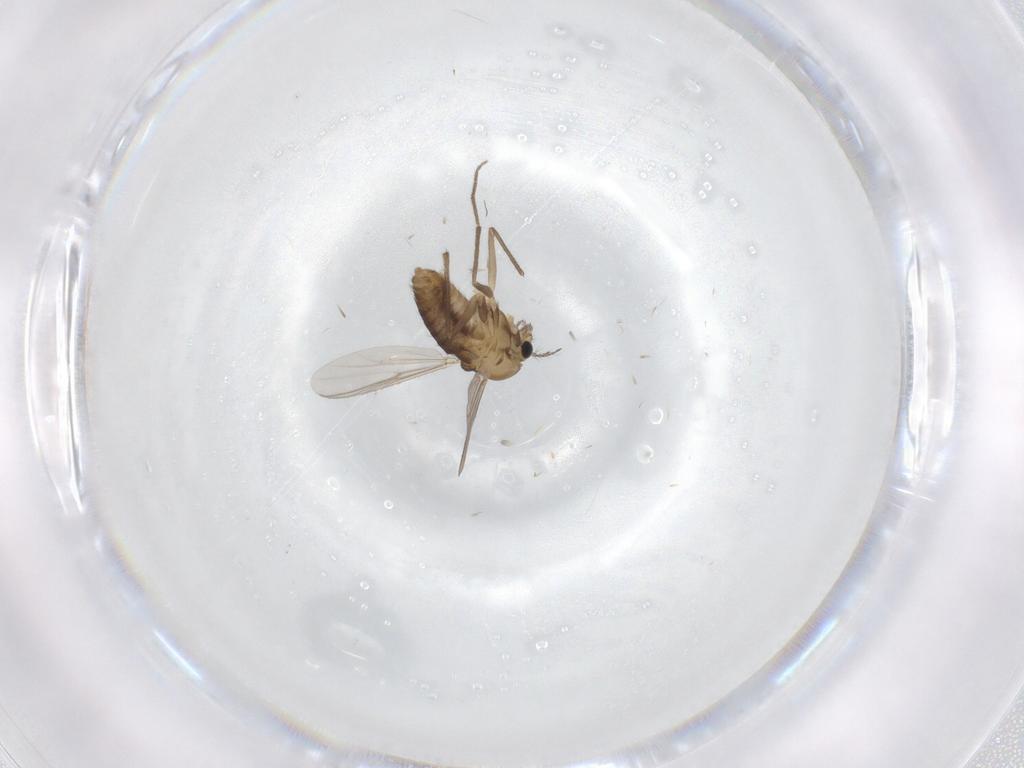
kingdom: Animalia
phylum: Arthropoda
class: Insecta
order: Diptera
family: Chironomidae
